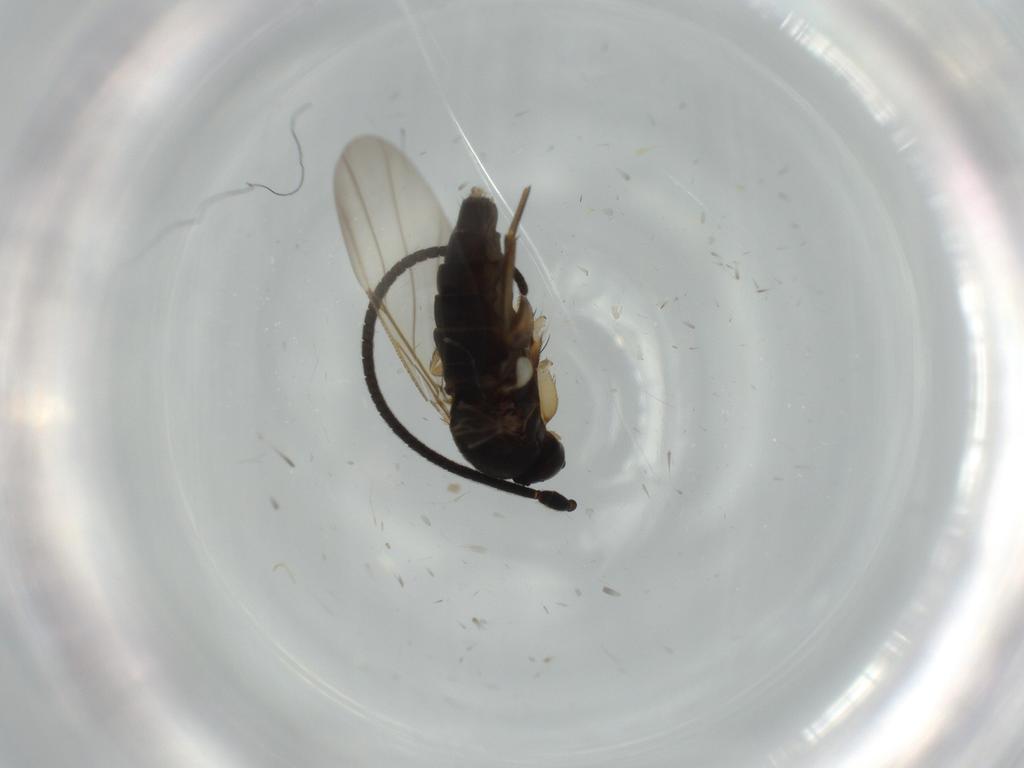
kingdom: Animalia
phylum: Arthropoda
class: Insecta
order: Diptera
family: Phoridae
